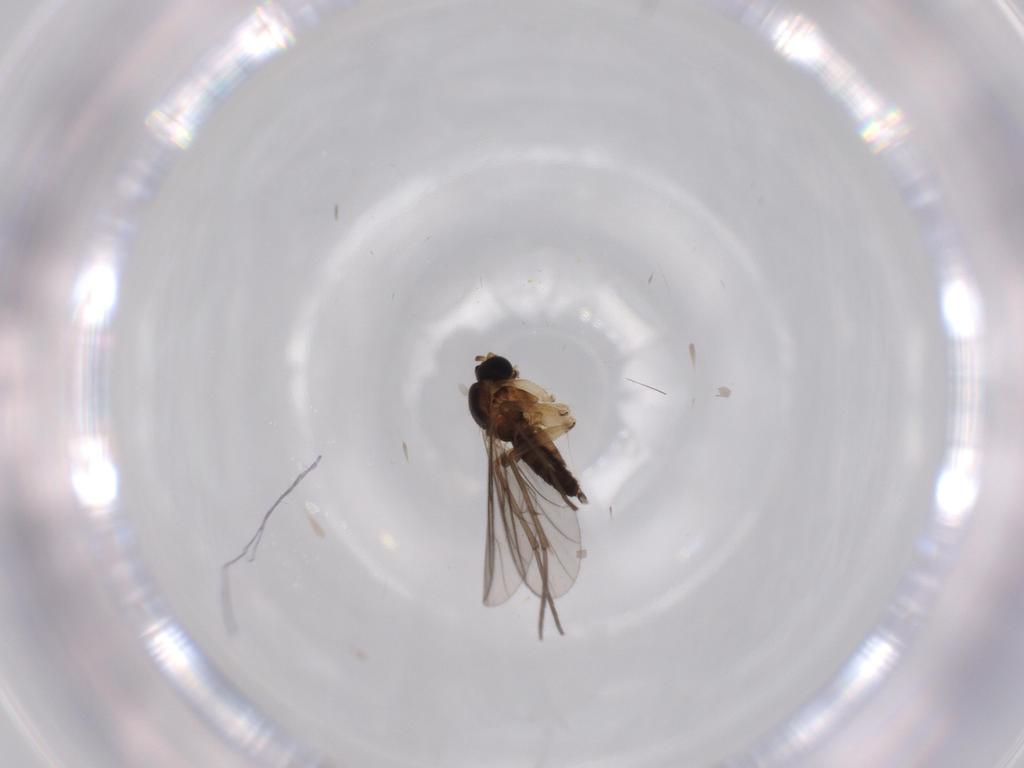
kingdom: Animalia
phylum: Arthropoda
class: Insecta
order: Diptera
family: Sciaridae
